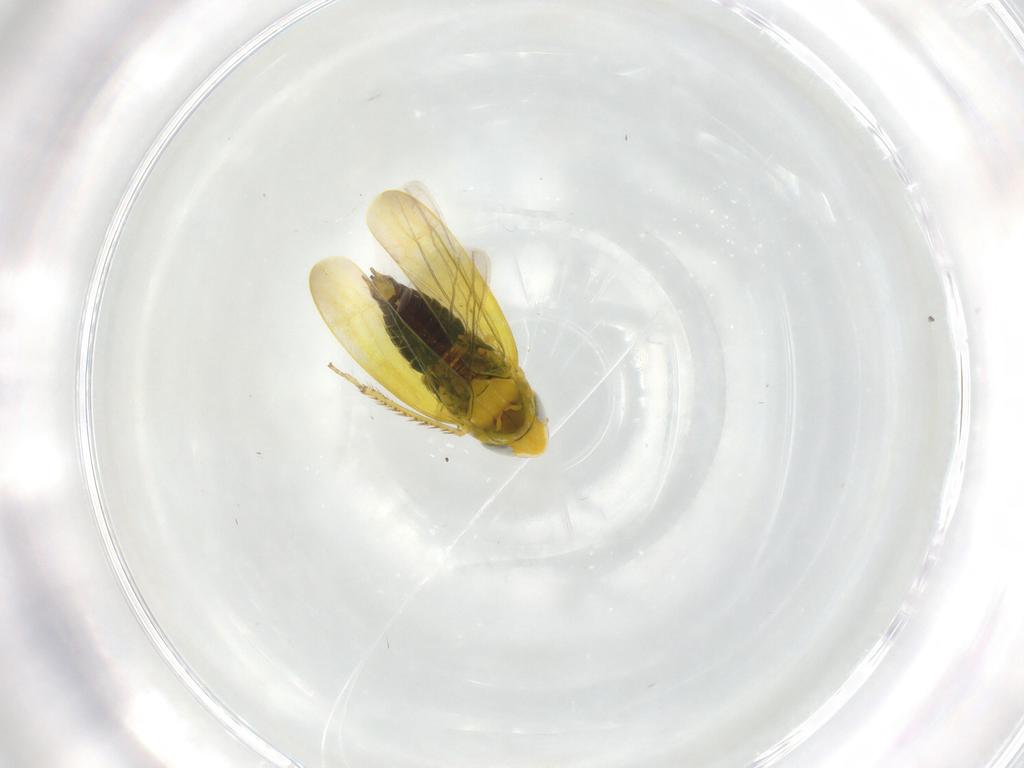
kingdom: Animalia
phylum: Arthropoda
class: Insecta
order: Hemiptera
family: Cicadellidae
